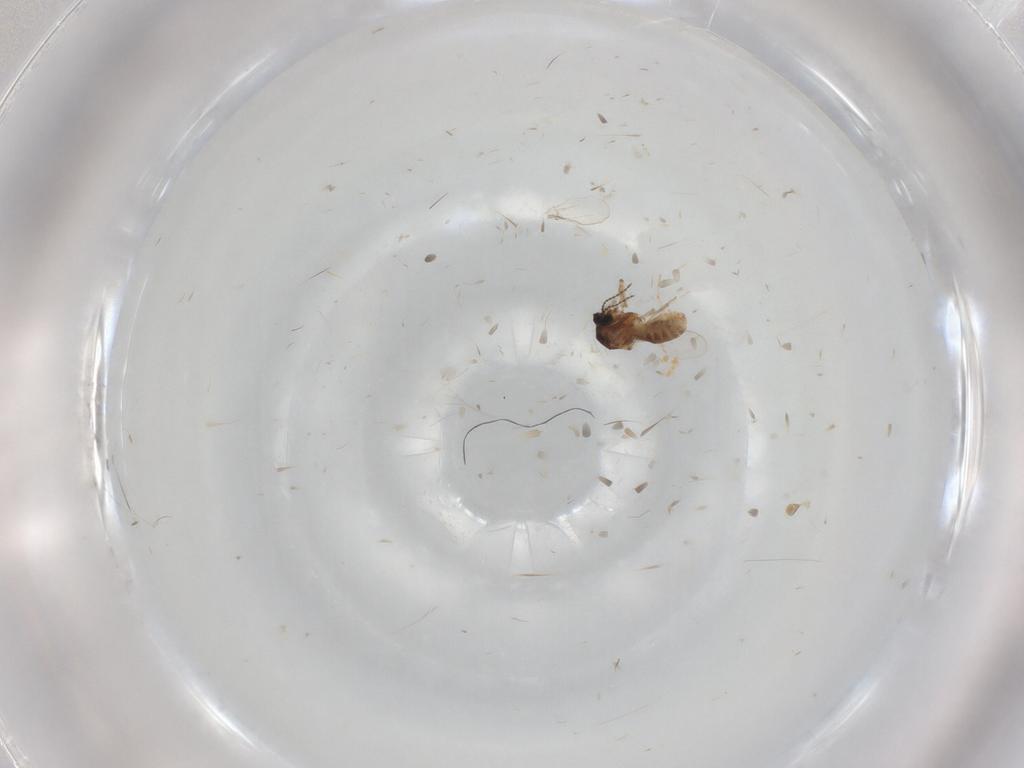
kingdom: Animalia
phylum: Arthropoda
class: Insecta
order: Diptera
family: Ceratopogonidae
